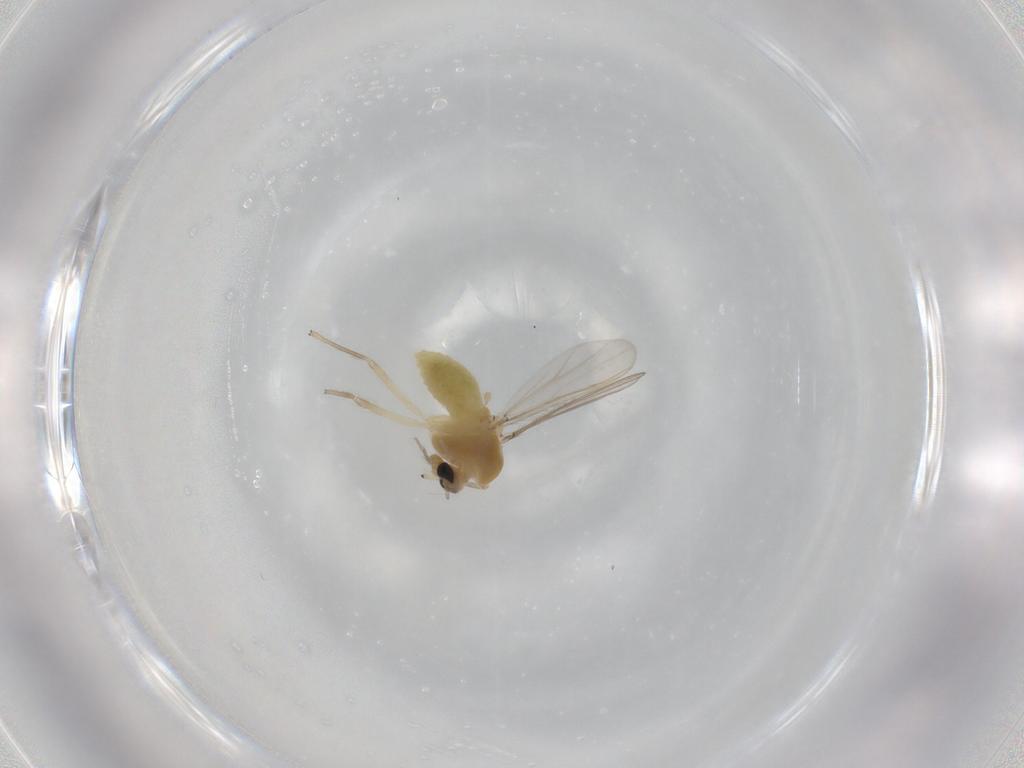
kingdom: Animalia
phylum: Arthropoda
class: Insecta
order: Diptera
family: Chironomidae
